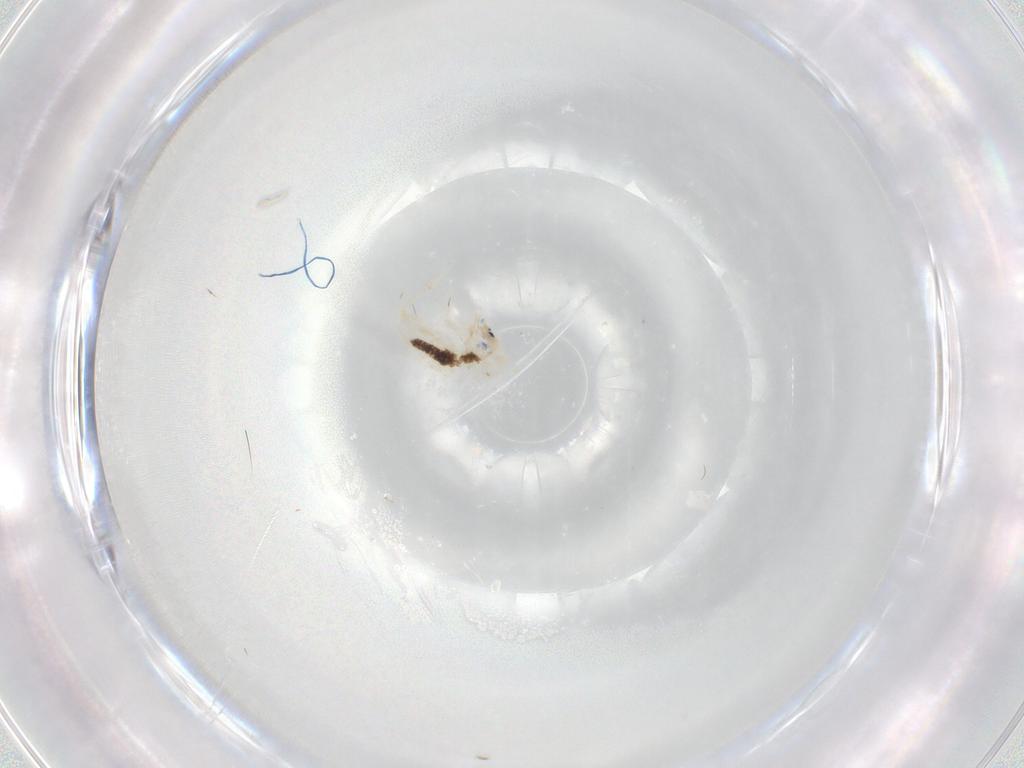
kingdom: Animalia
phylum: Arthropoda
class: Collembola
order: Entomobryomorpha
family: Entomobryidae
